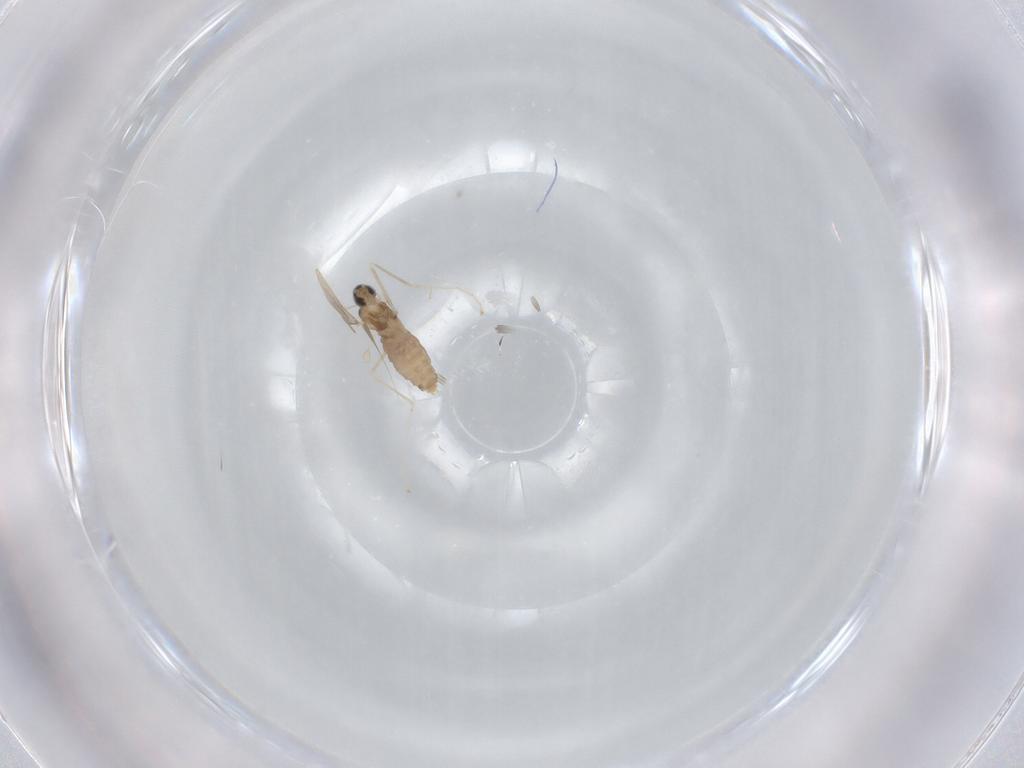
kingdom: Animalia
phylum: Arthropoda
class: Insecta
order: Diptera
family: Cecidomyiidae
